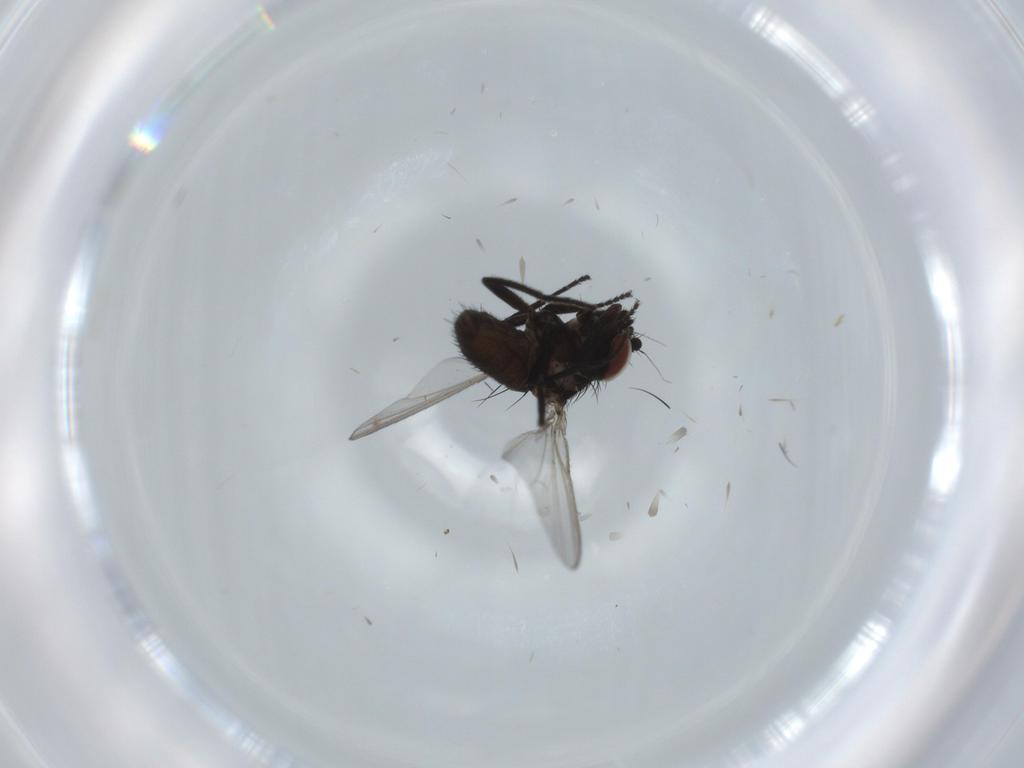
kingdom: Animalia
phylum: Arthropoda
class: Insecta
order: Diptera
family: Milichiidae
